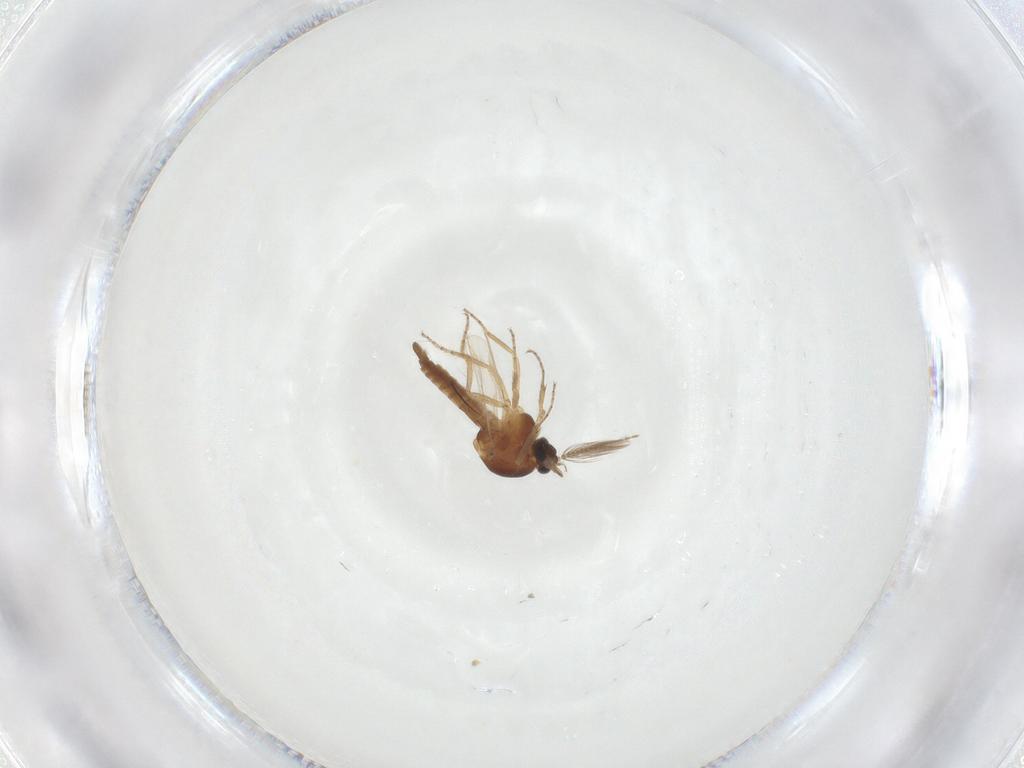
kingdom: Animalia
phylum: Arthropoda
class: Insecta
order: Diptera
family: Ceratopogonidae
